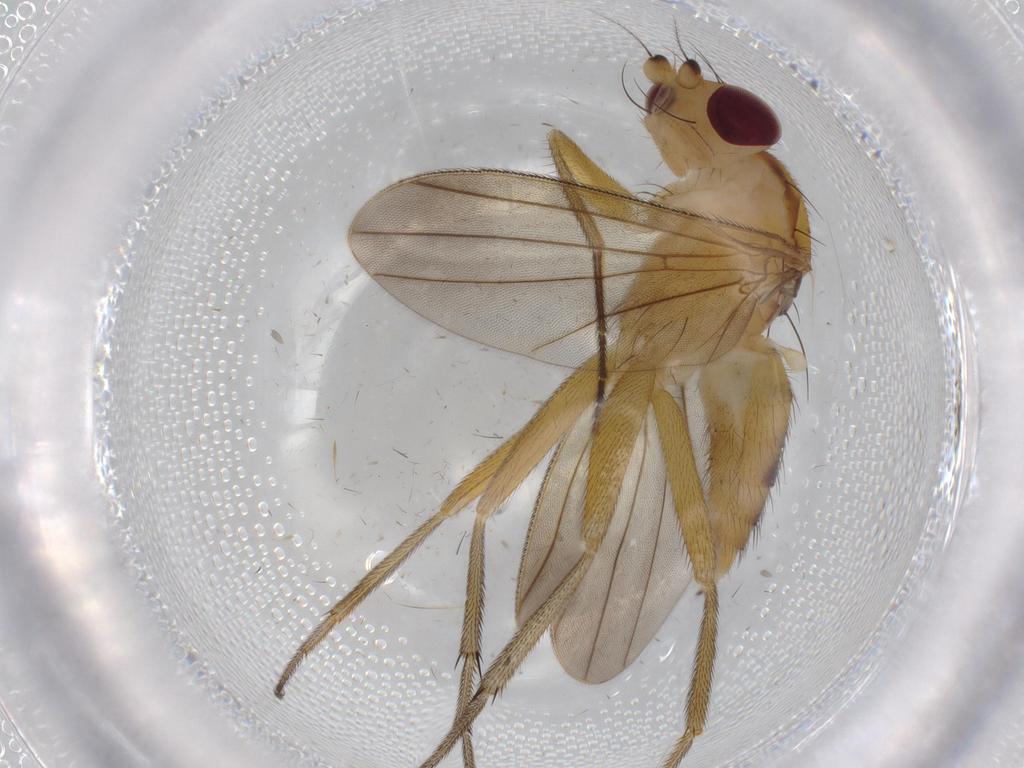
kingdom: Animalia
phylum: Arthropoda
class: Insecta
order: Diptera
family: Clusiidae
